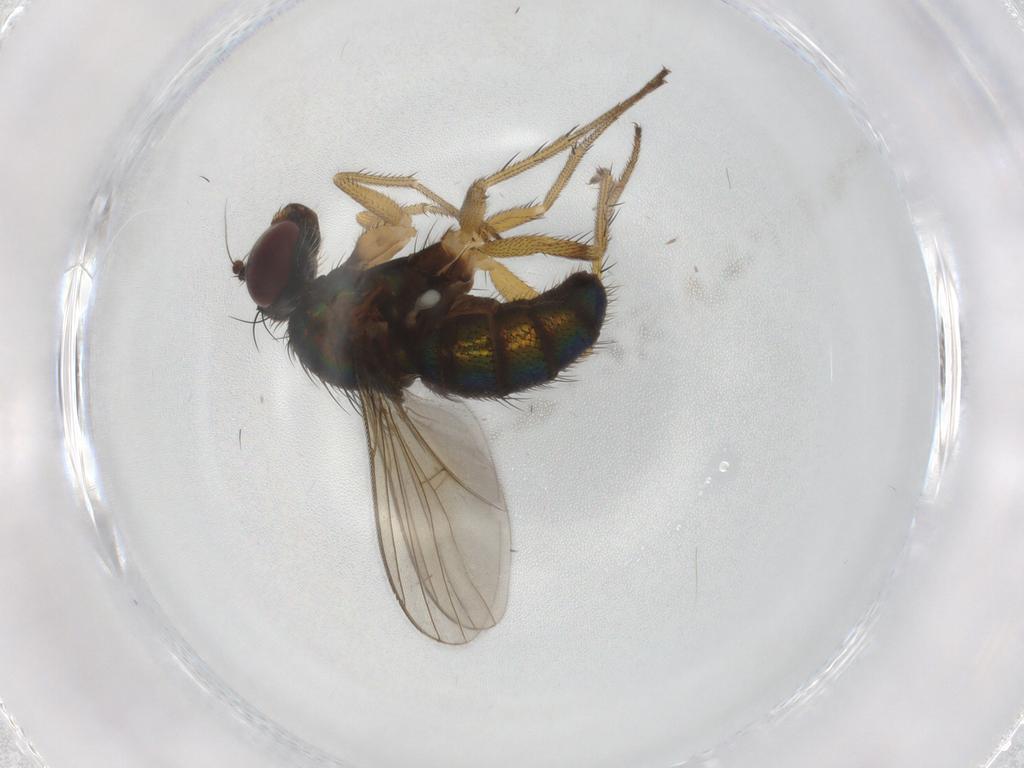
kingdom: Animalia
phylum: Arthropoda
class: Insecta
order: Diptera
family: Dolichopodidae
